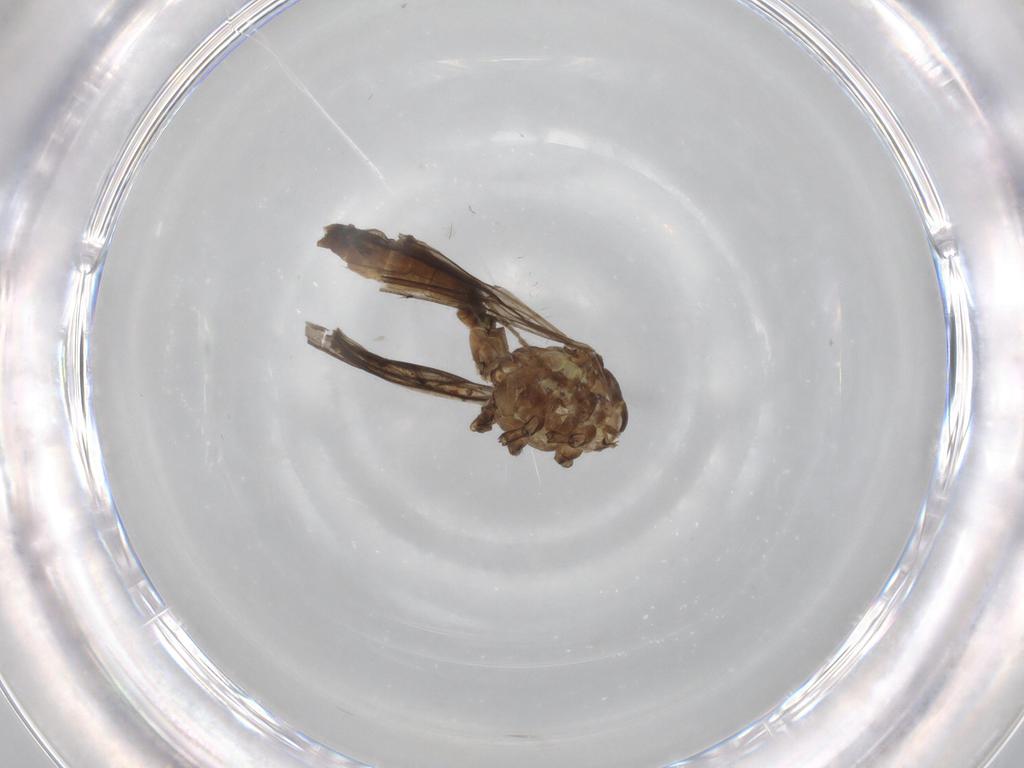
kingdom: Animalia
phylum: Arthropoda
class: Insecta
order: Diptera
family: Limoniidae
